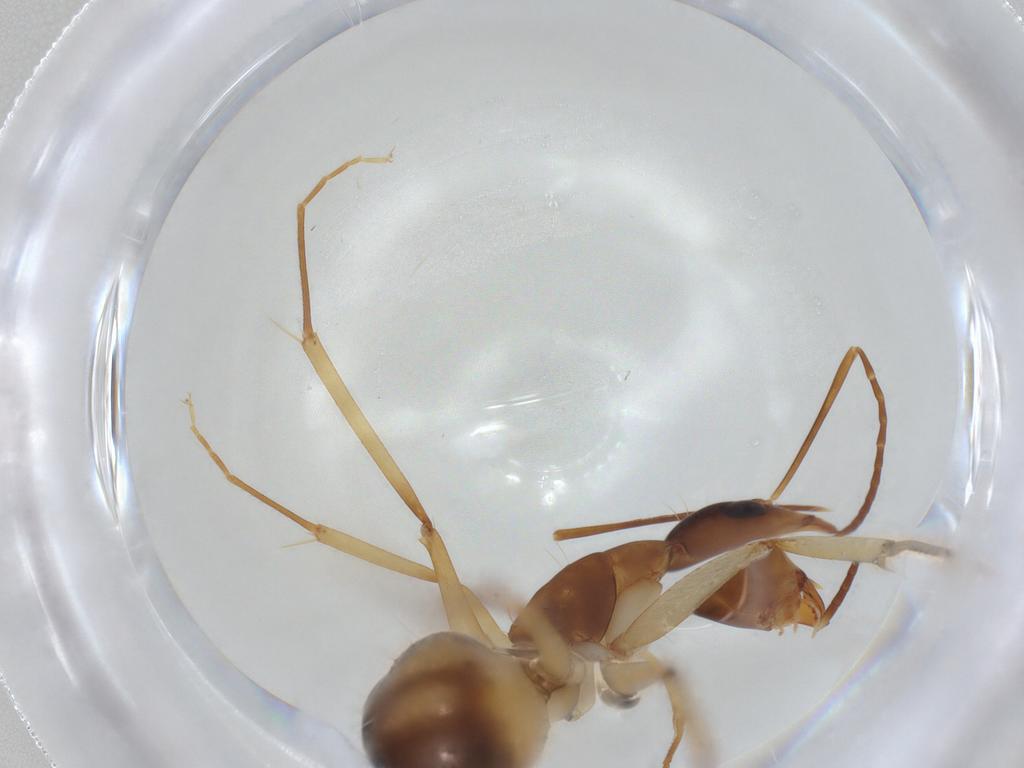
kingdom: Animalia
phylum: Arthropoda
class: Insecta
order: Hymenoptera
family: Formicidae
